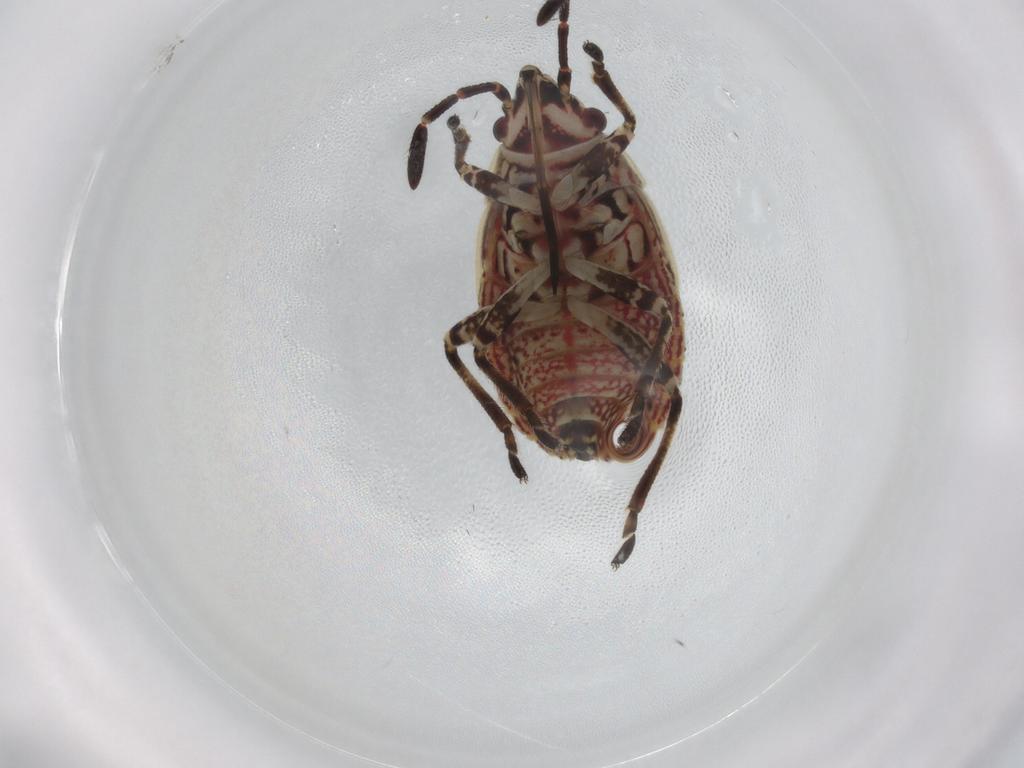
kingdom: Animalia
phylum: Arthropoda
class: Insecta
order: Hemiptera
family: Lygaeidae
